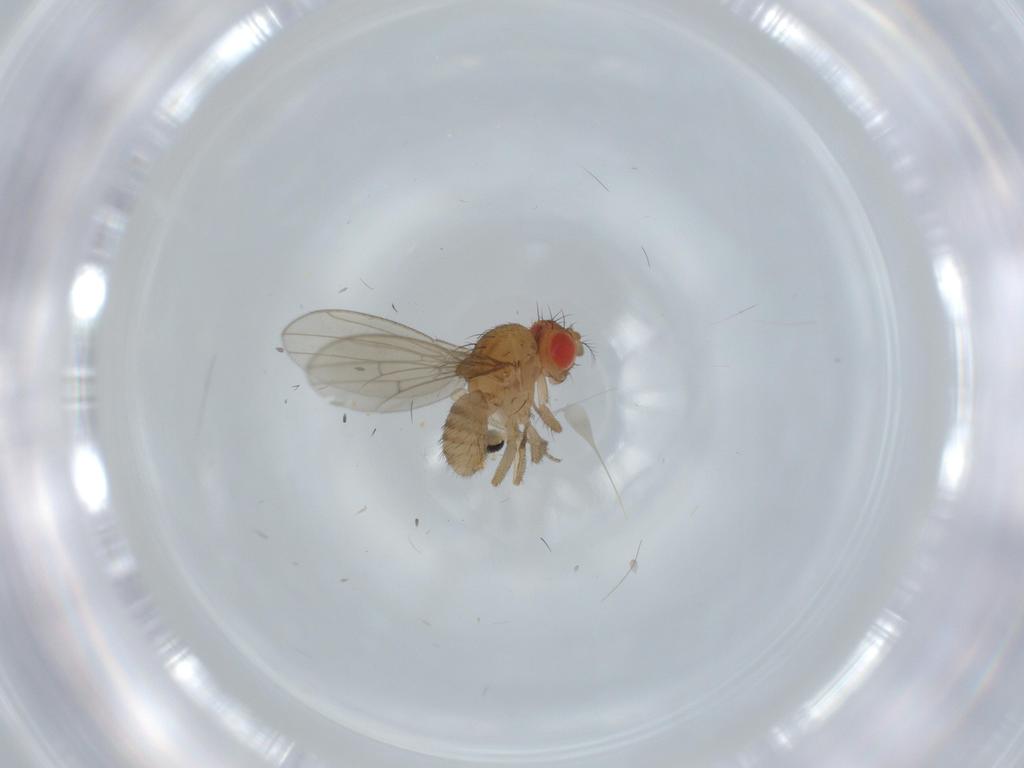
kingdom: Animalia
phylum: Arthropoda
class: Insecta
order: Diptera
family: Drosophilidae
